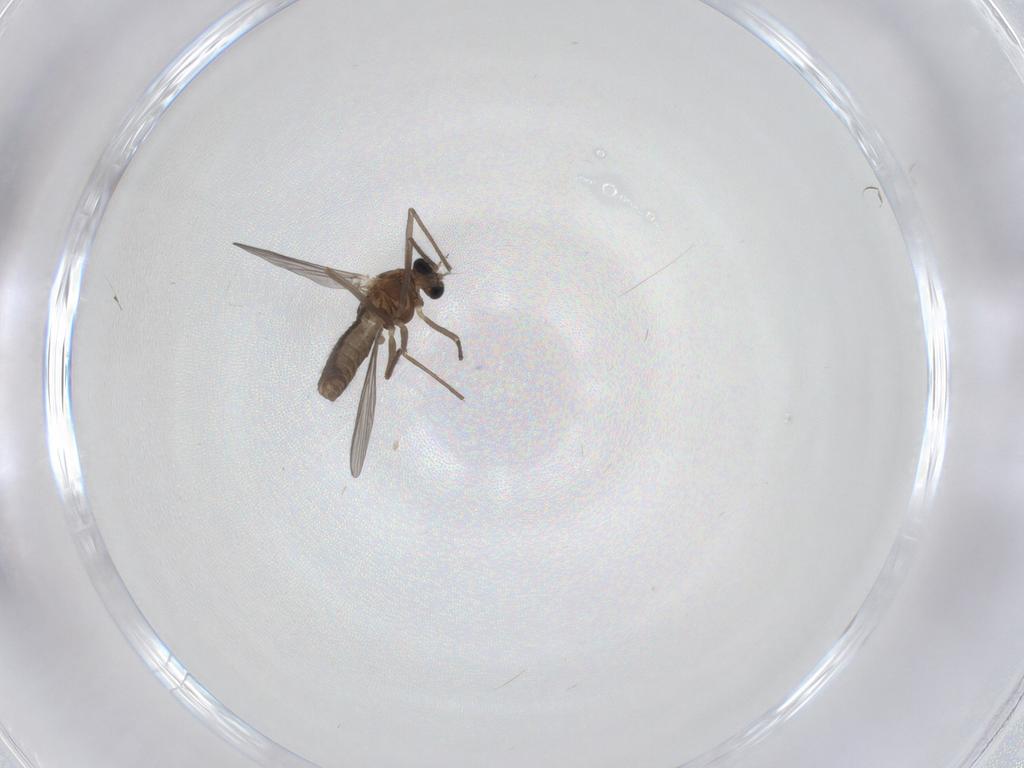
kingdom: Animalia
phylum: Arthropoda
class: Insecta
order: Diptera
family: Chironomidae
